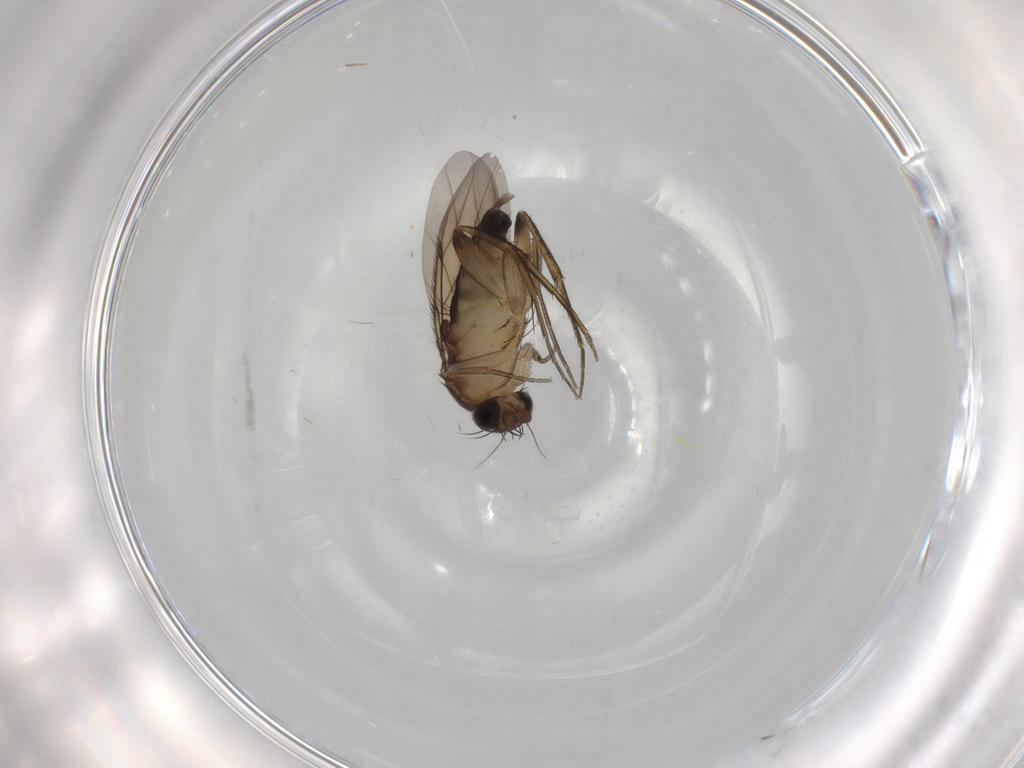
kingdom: Animalia
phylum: Arthropoda
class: Insecta
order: Diptera
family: Limoniidae
